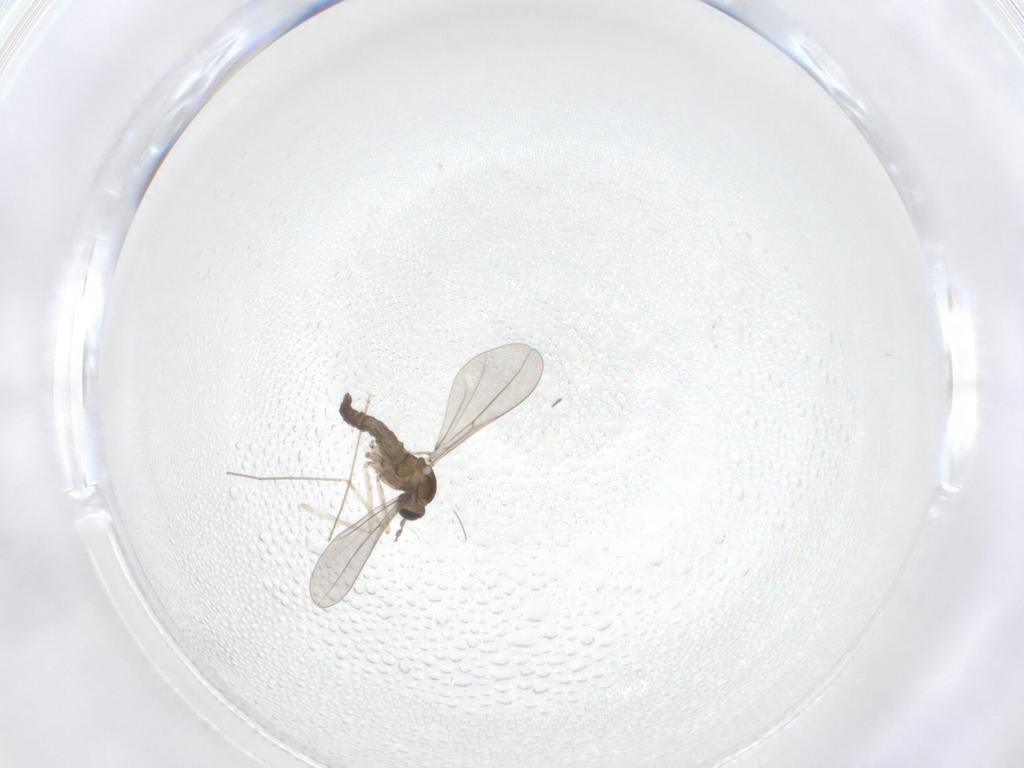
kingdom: Animalia
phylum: Arthropoda
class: Insecta
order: Diptera
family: Cecidomyiidae
